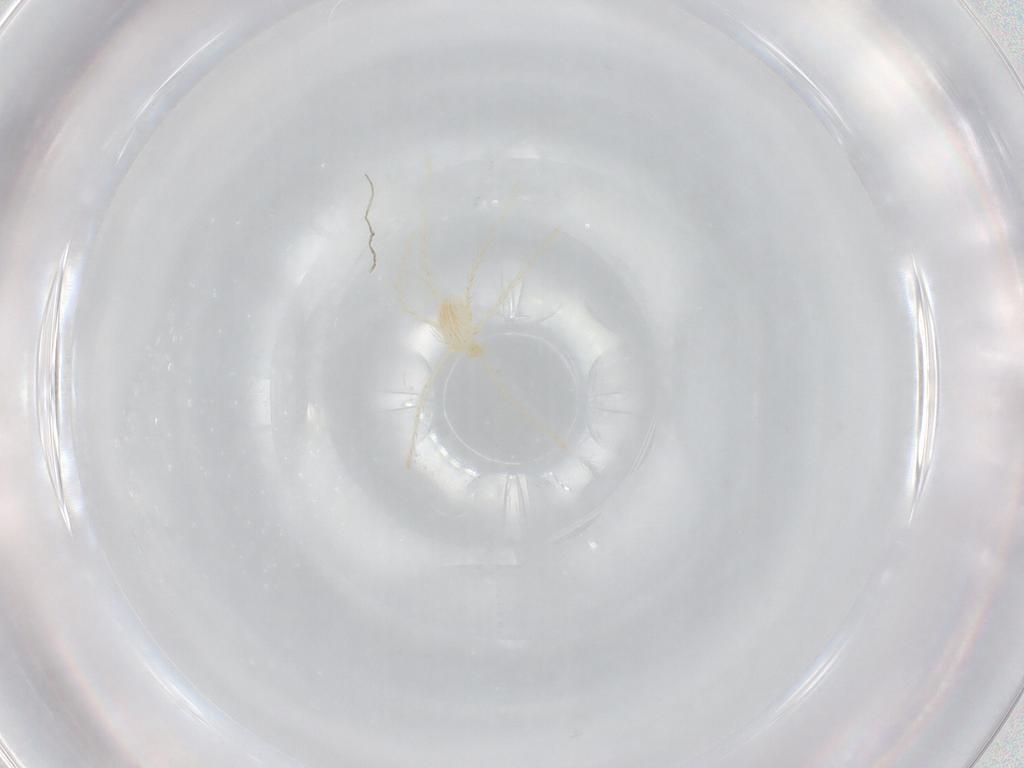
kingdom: Animalia
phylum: Arthropoda
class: Arachnida
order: Trombidiformes
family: Erythraeidae
